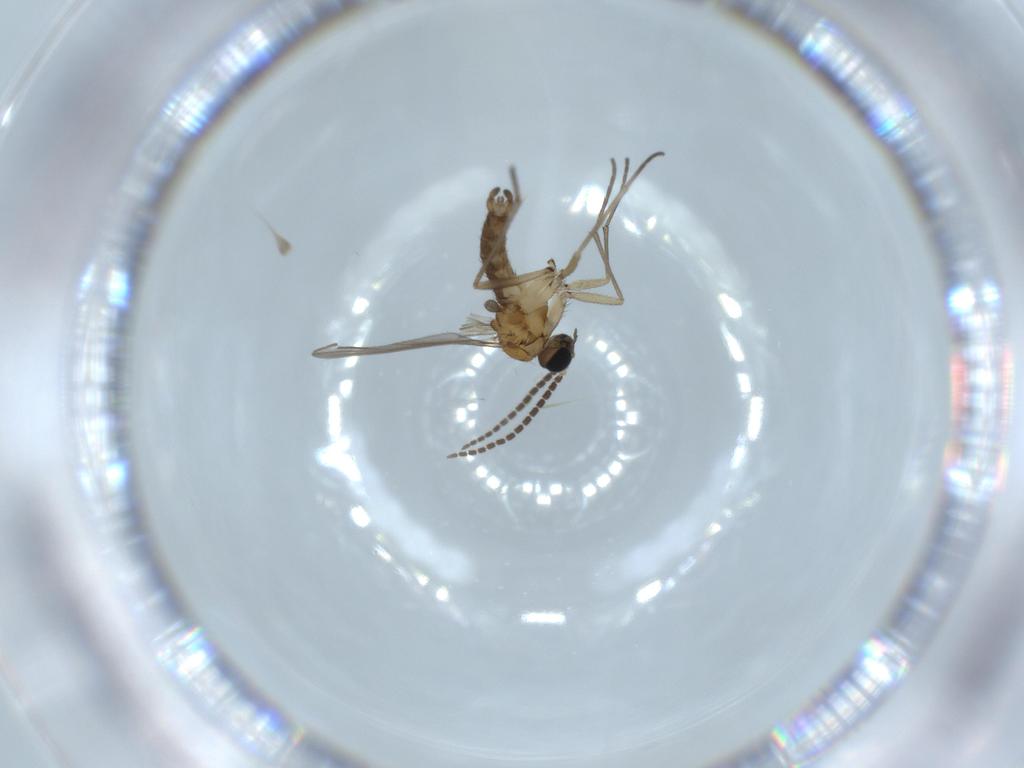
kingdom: Animalia
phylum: Arthropoda
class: Insecta
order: Diptera
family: Sciaridae
